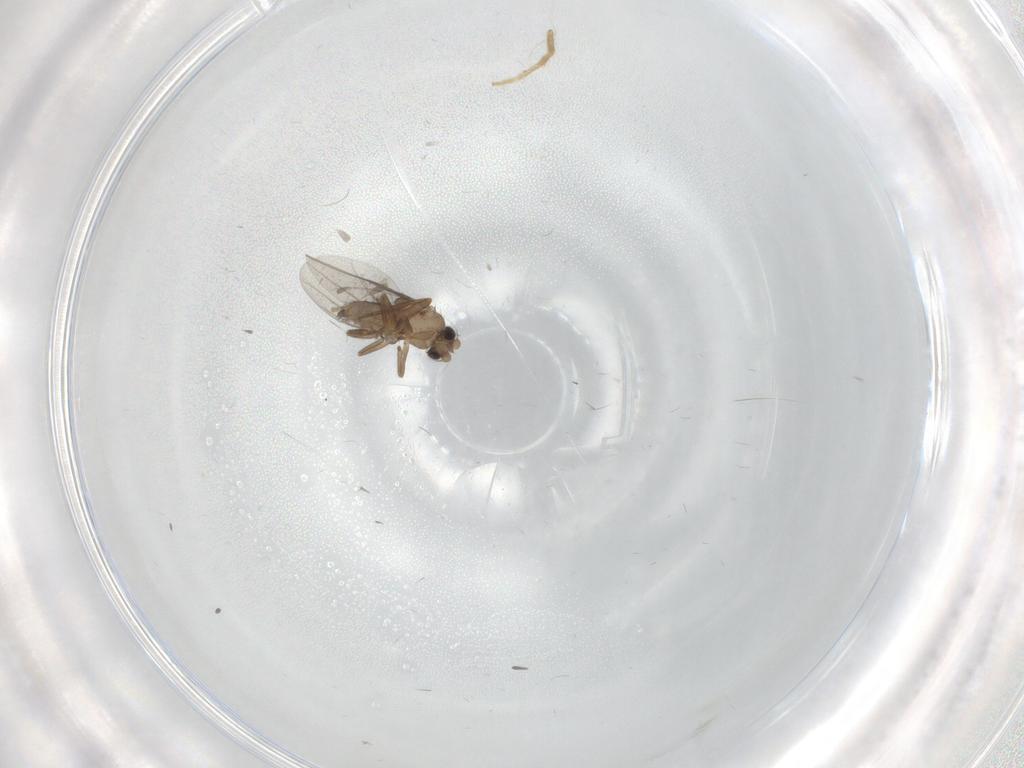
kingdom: Animalia
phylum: Arthropoda
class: Insecta
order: Diptera
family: Chironomidae
